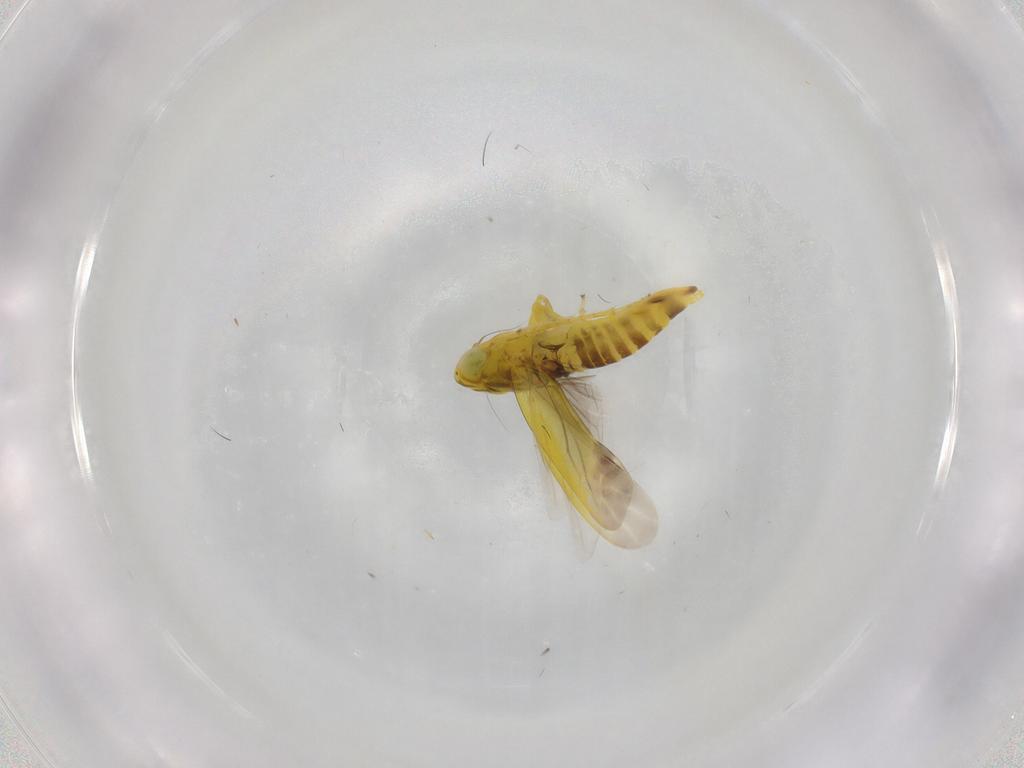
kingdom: Animalia
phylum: Arthropoda
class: Insecta
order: Hemiptera
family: Cicadellidae
